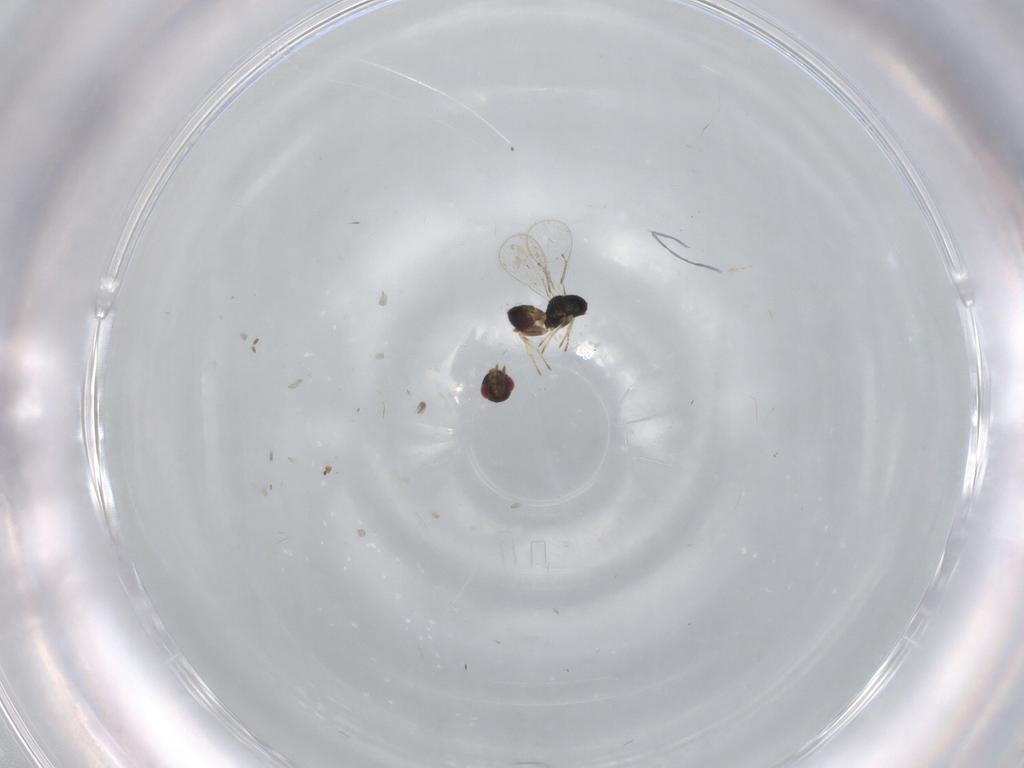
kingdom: Animalia
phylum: Arthropoda
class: Insecta
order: Hymenoptera
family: Eulophidae
